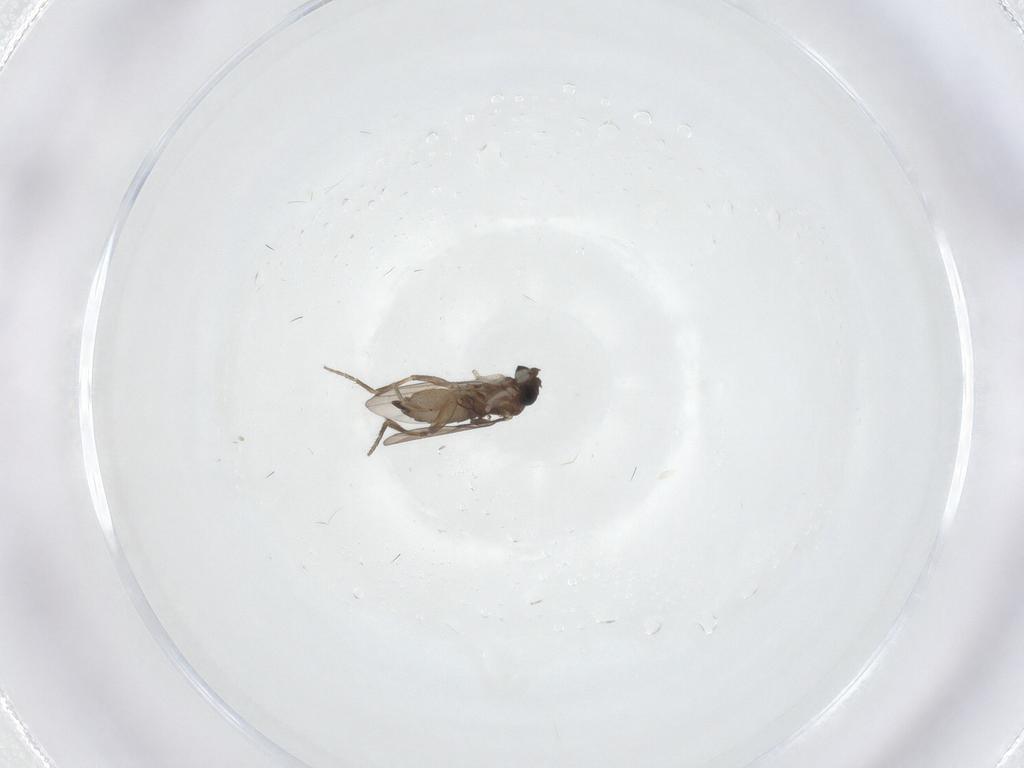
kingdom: Animalia
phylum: Arthropoda
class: Insecta
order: Diptera
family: Phoridae
